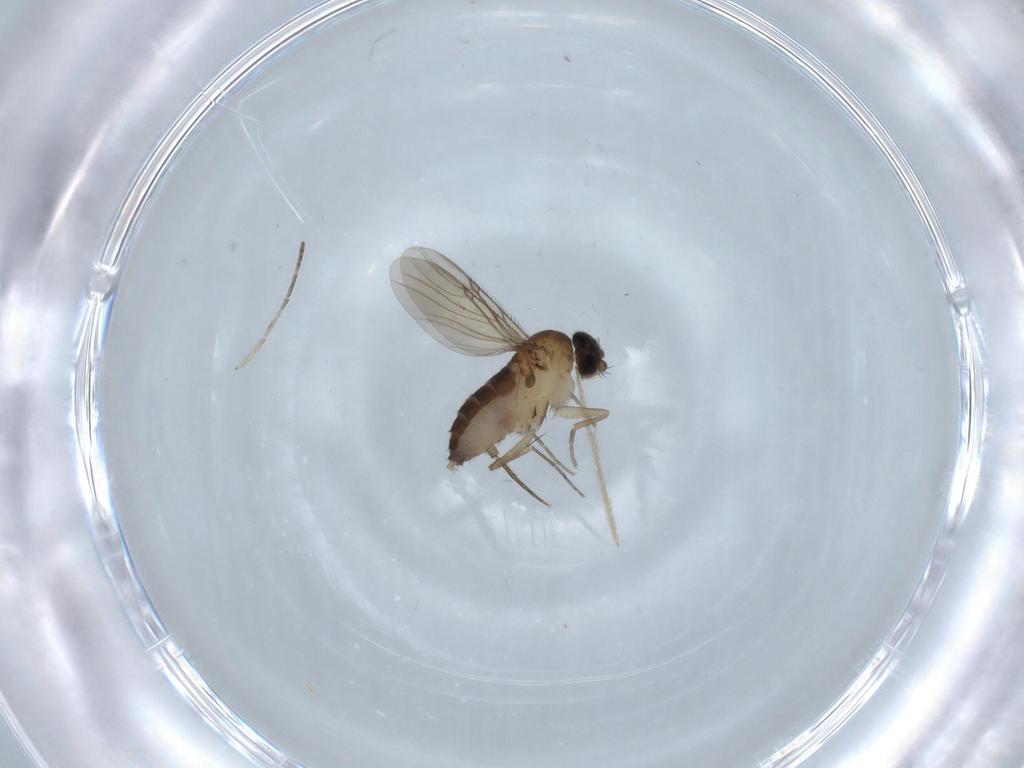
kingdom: Animalia
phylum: Arthropoda
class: Insecta
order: Diptera
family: Phoridae
